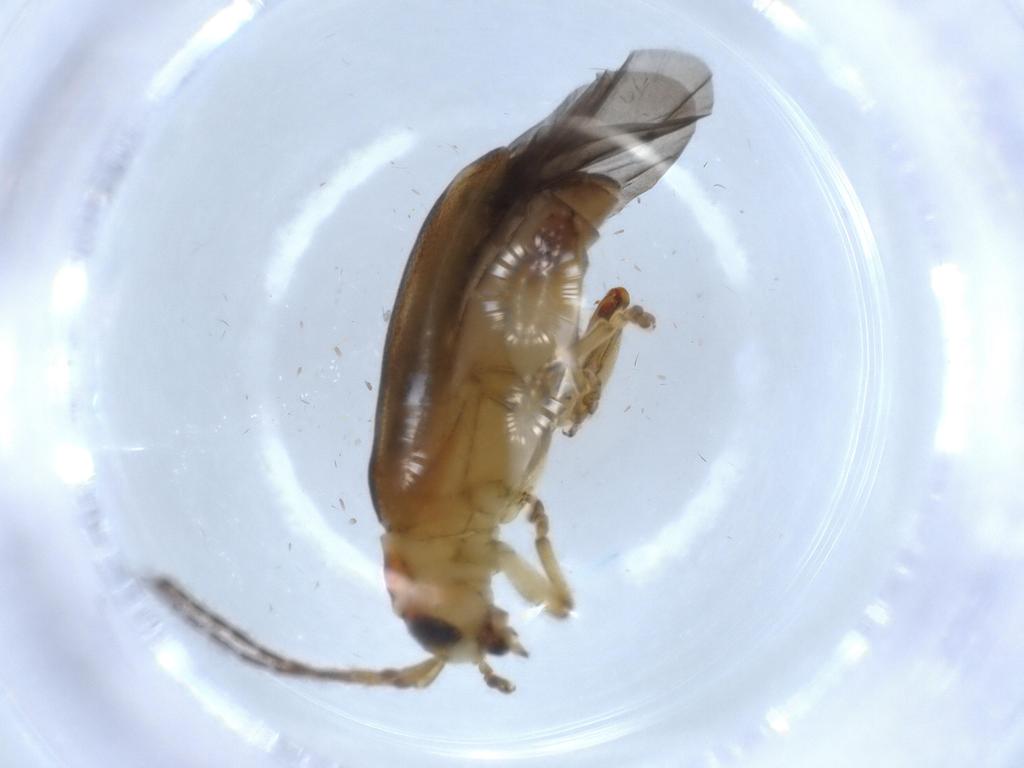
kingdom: Animalia
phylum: Arthropoda
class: Insecta
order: Coleoptera
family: Chrysomelidae
